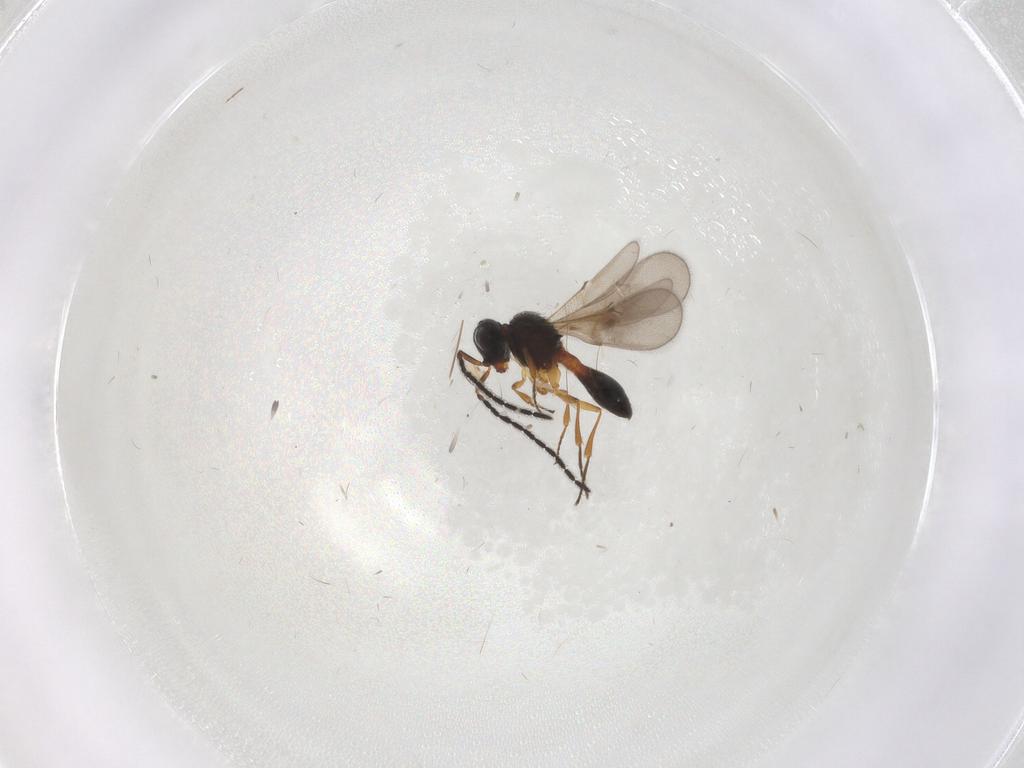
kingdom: Animalia
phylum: Arthropoda
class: Insecta
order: Hymenoptera
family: Scelionidae
